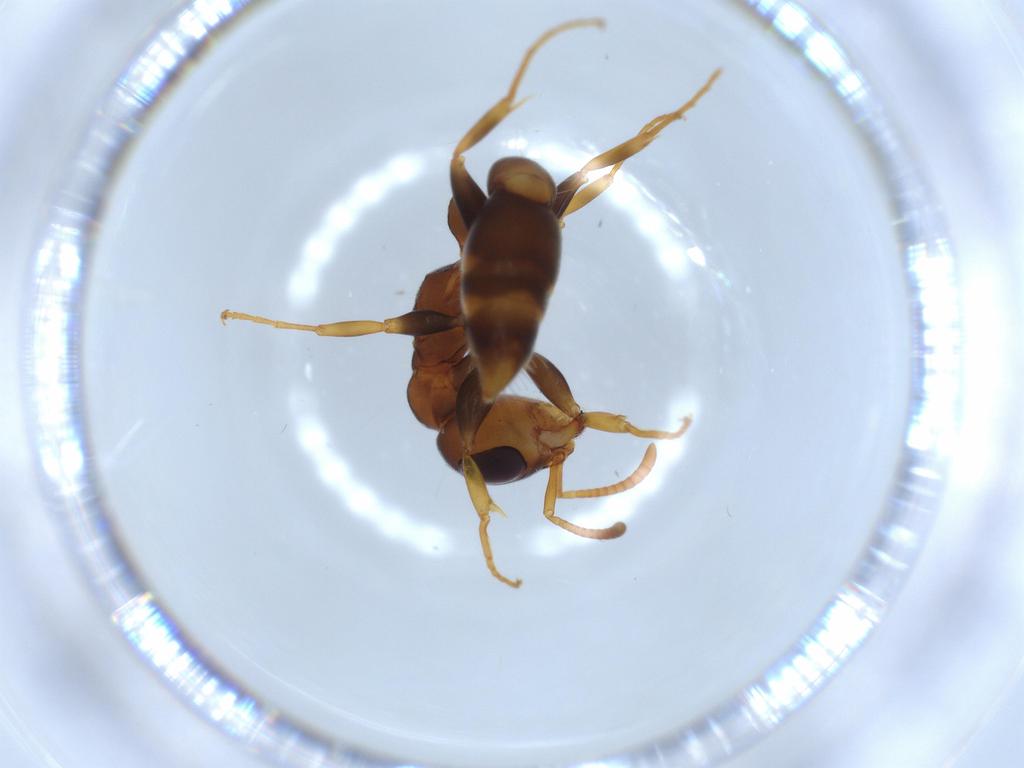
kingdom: Animalia
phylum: Arthropoda
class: Insecta
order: Hymenoptera
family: Formicidae
